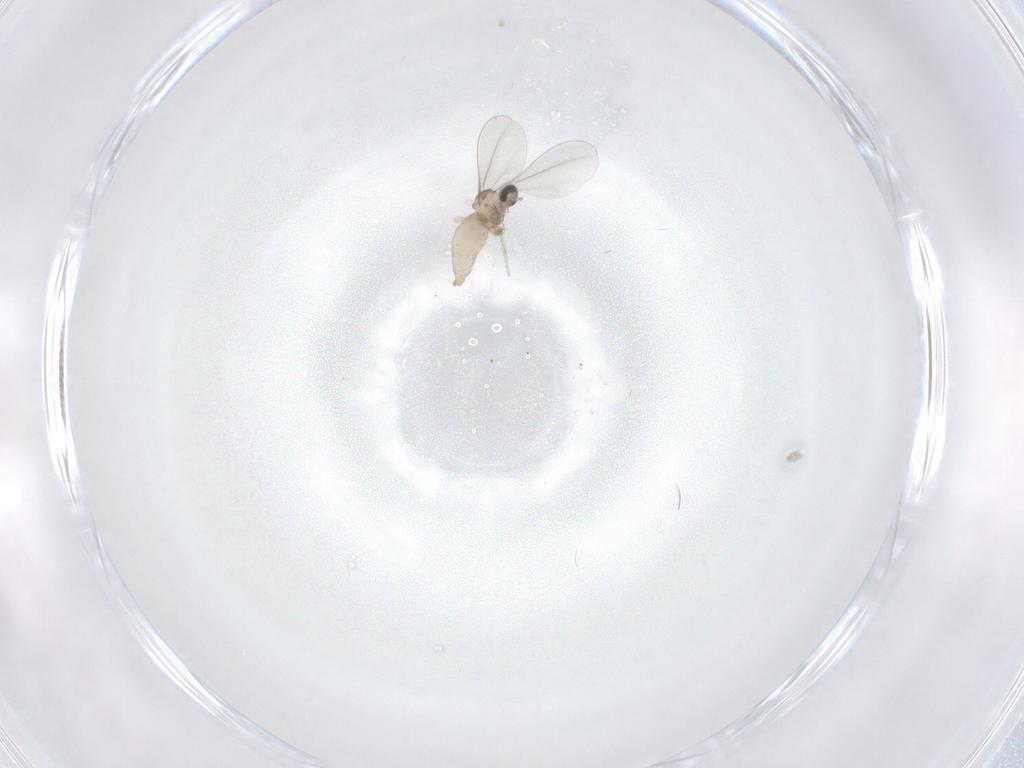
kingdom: Animalia
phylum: Arthropoda
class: Insecta
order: Diptera
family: Cecidomyiidae
